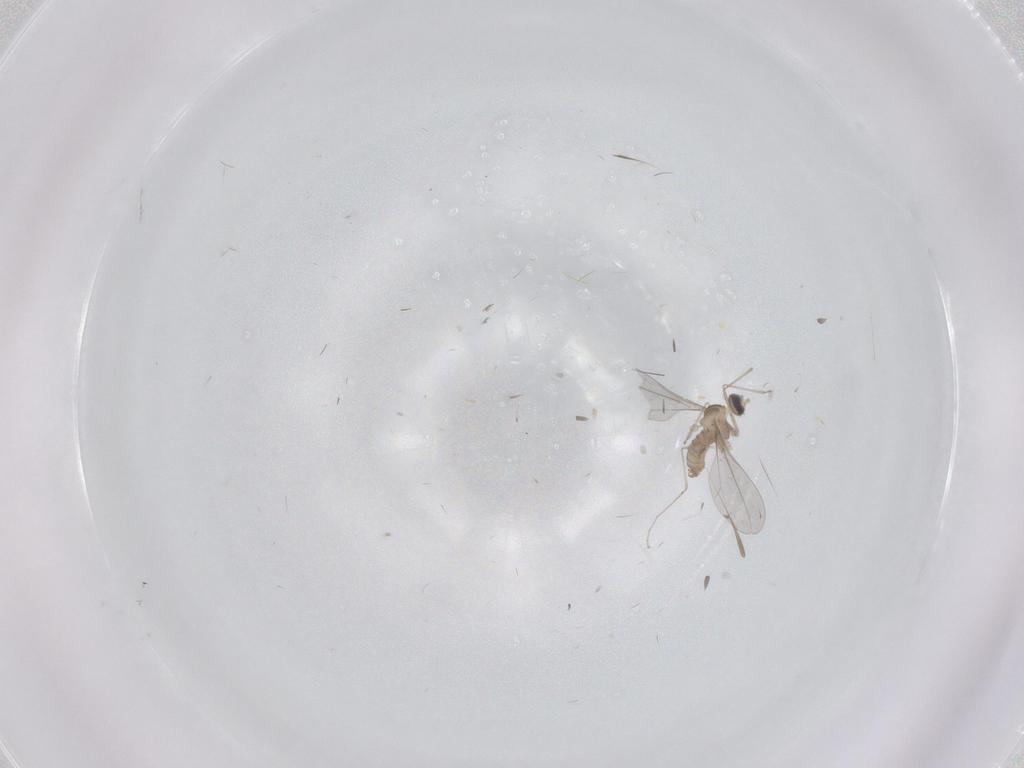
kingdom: Animalia
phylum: Arthropoda
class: Insecta
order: Diptera
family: Cecidomyiidae
